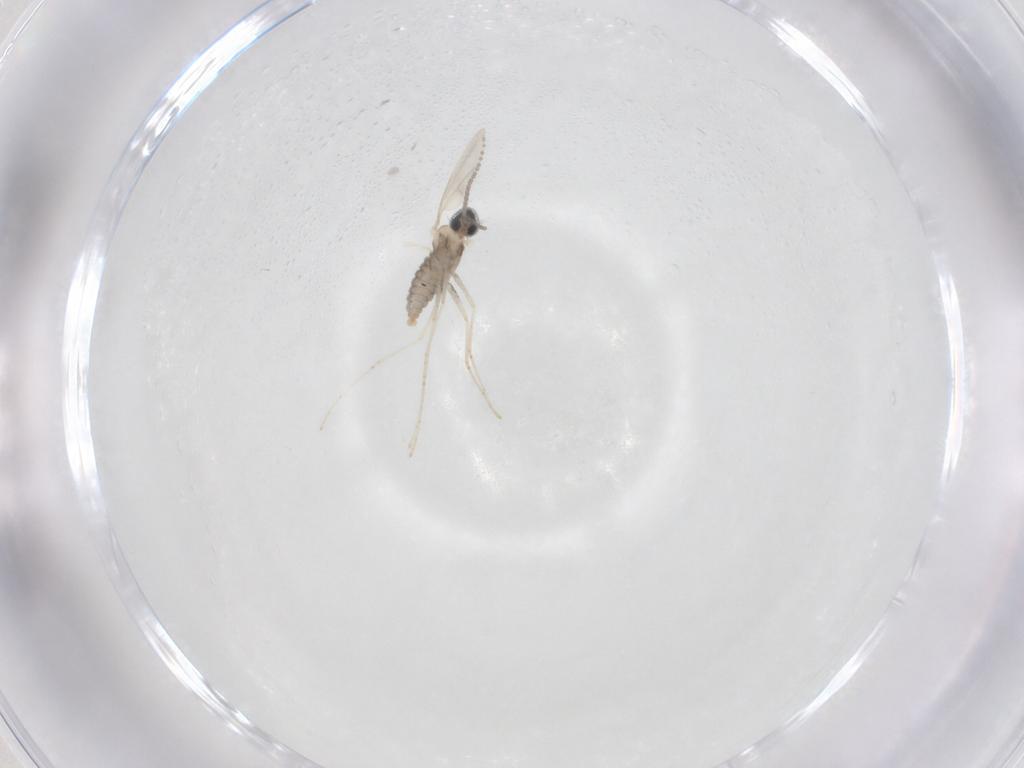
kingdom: Animalia
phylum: Arthropoda
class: Insecta
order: Diptera
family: Cecidomyiidae
